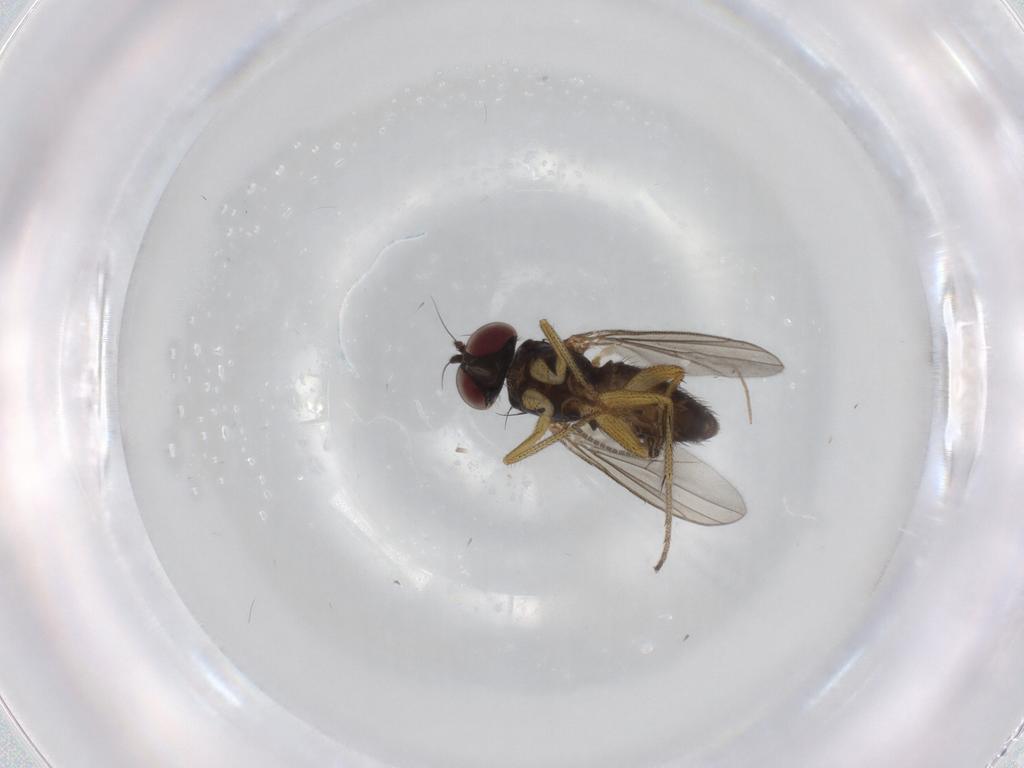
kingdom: Animalia
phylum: Arthropoda
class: Insecta
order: Diptera
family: Sciaridae
